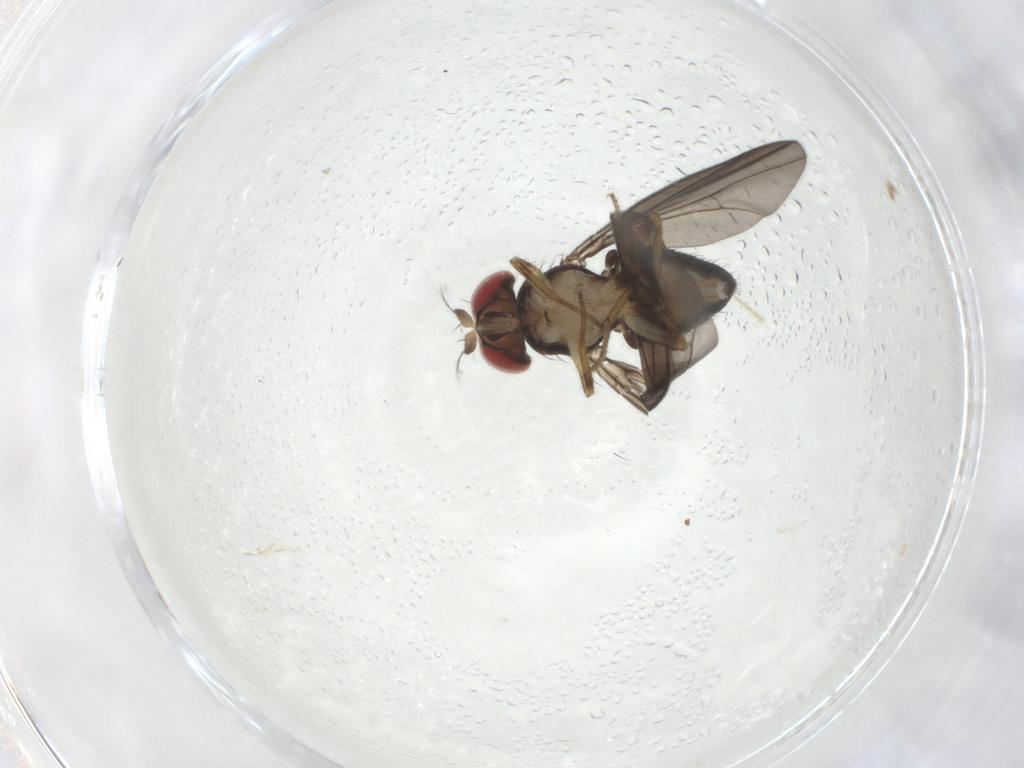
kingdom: Animalia
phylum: Arthropoda
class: Insecta
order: Diptera
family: Drosophilidae
